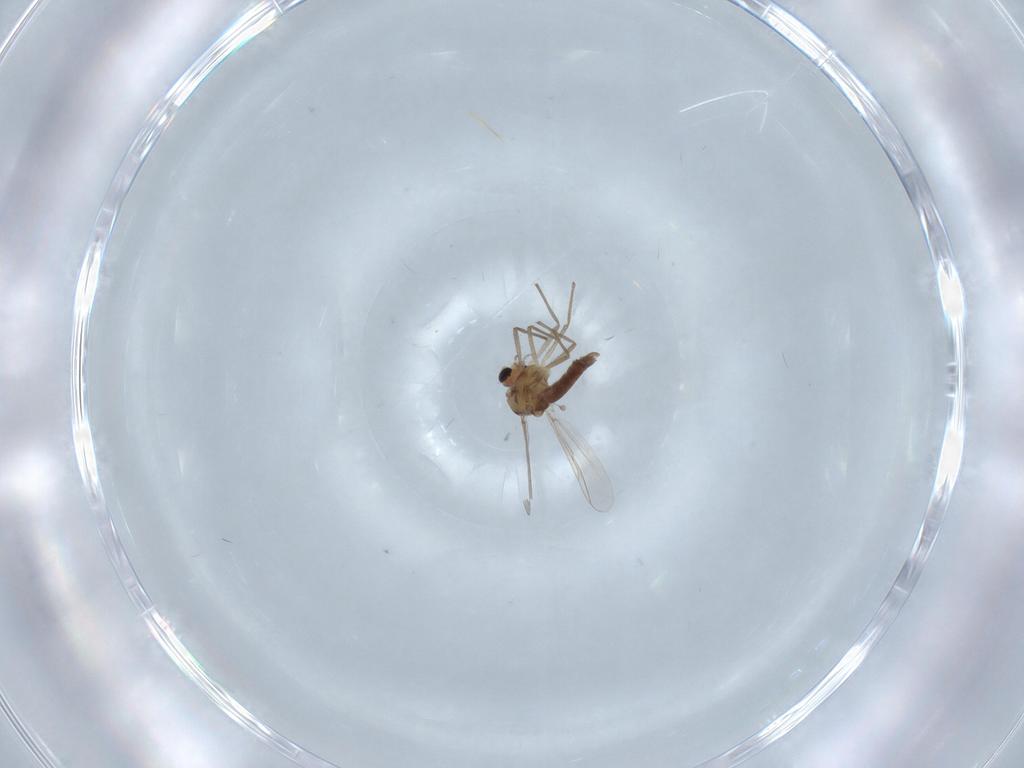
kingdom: Animalia
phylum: Arthropoda
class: Insecta
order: Diptera
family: Chironomidae
